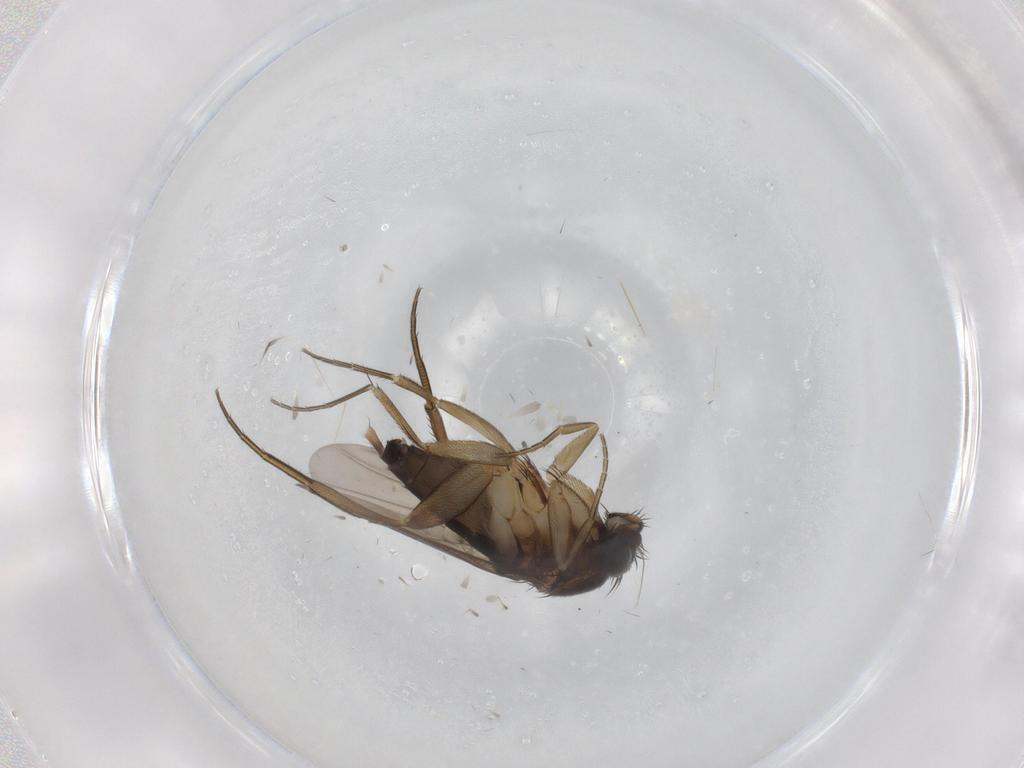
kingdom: Animalia
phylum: Arthropoda
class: Insecta
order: Diptera
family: Phoridae
